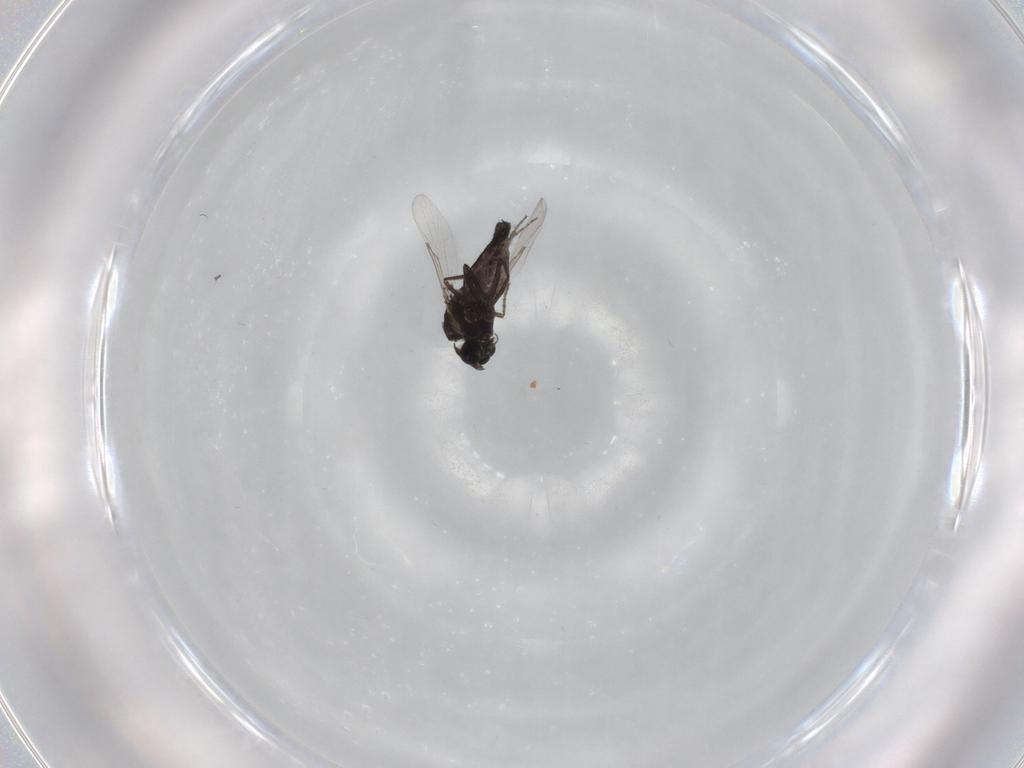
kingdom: Animalia
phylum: Arthropoda
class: Insecta
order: Diptera
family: Ceratopogonidae
